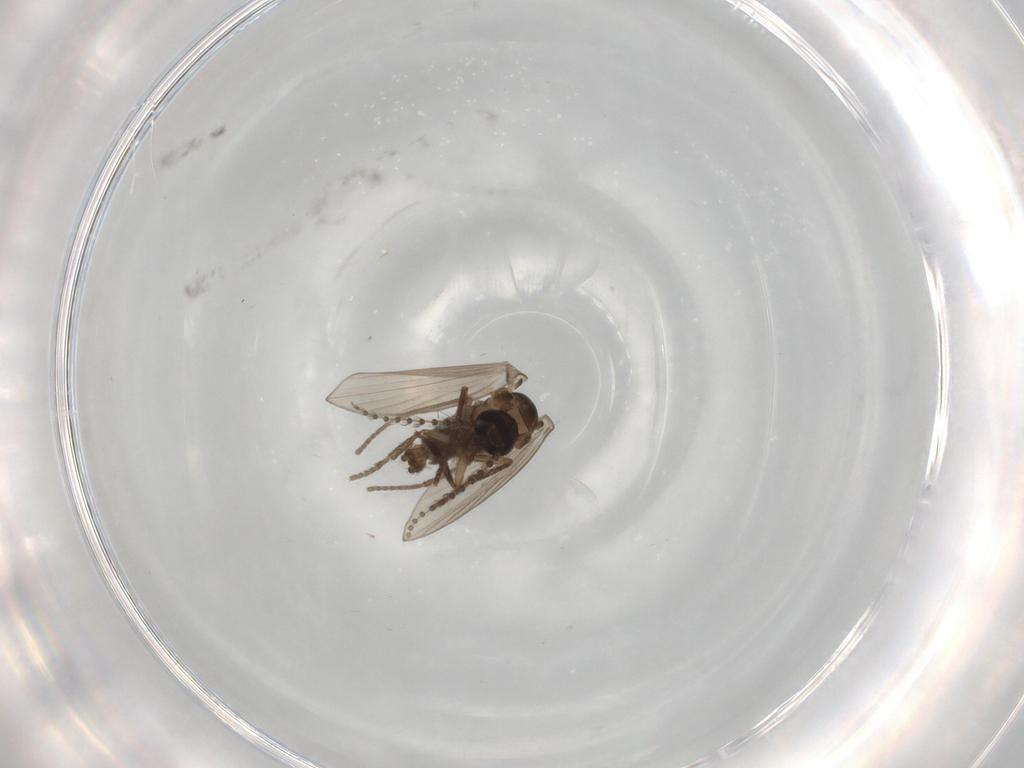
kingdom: Animalia
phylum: Arthropoda
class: Insecta
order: Diptera
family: Psychodidae
